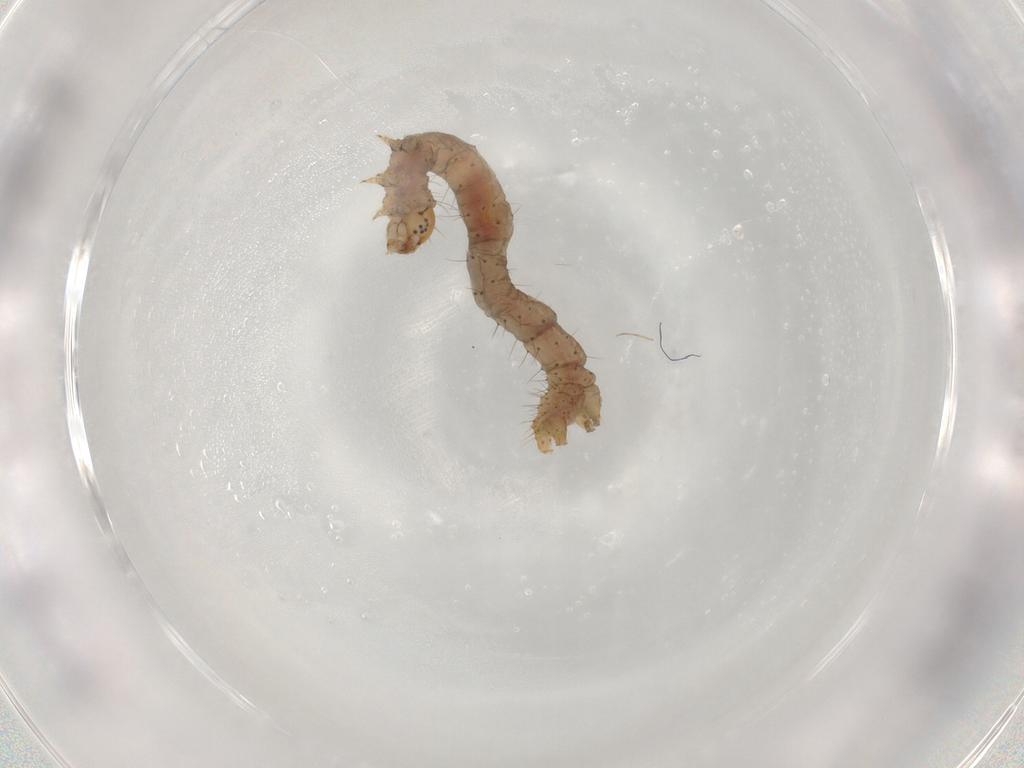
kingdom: Animalia
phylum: Arthropoda
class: Insecta
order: Lepidoptera
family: Geometridae
